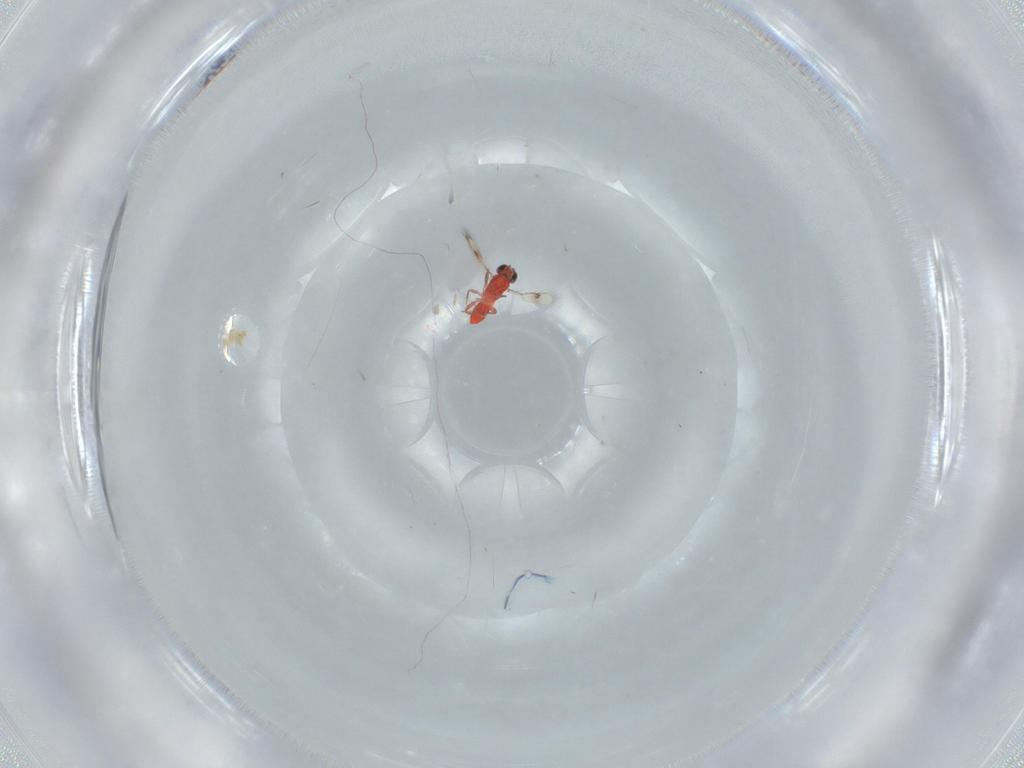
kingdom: Animalia
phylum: Arthropoda
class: Insecta
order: Hymenoptera
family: Trichogrammatidae
